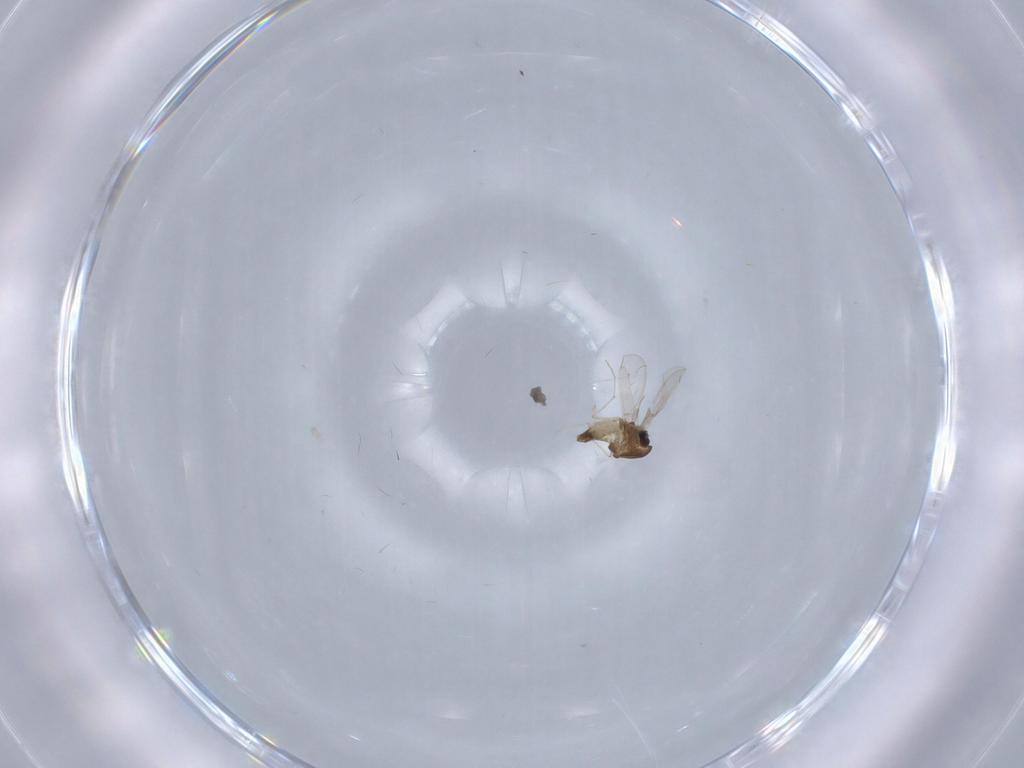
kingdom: Animalia
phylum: Arthropoda
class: Insecta
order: Diptera
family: Chironomidae
